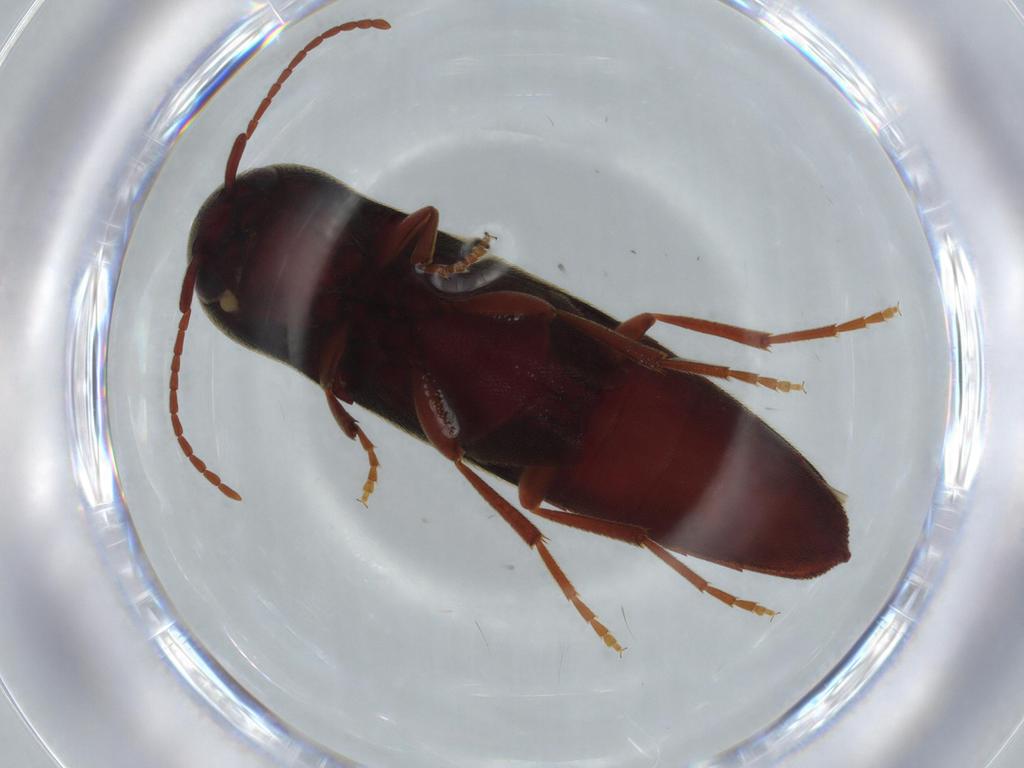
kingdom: Animalia
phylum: Arthropoda
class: Insecta
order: Coleoptera
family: Eucnemidae
